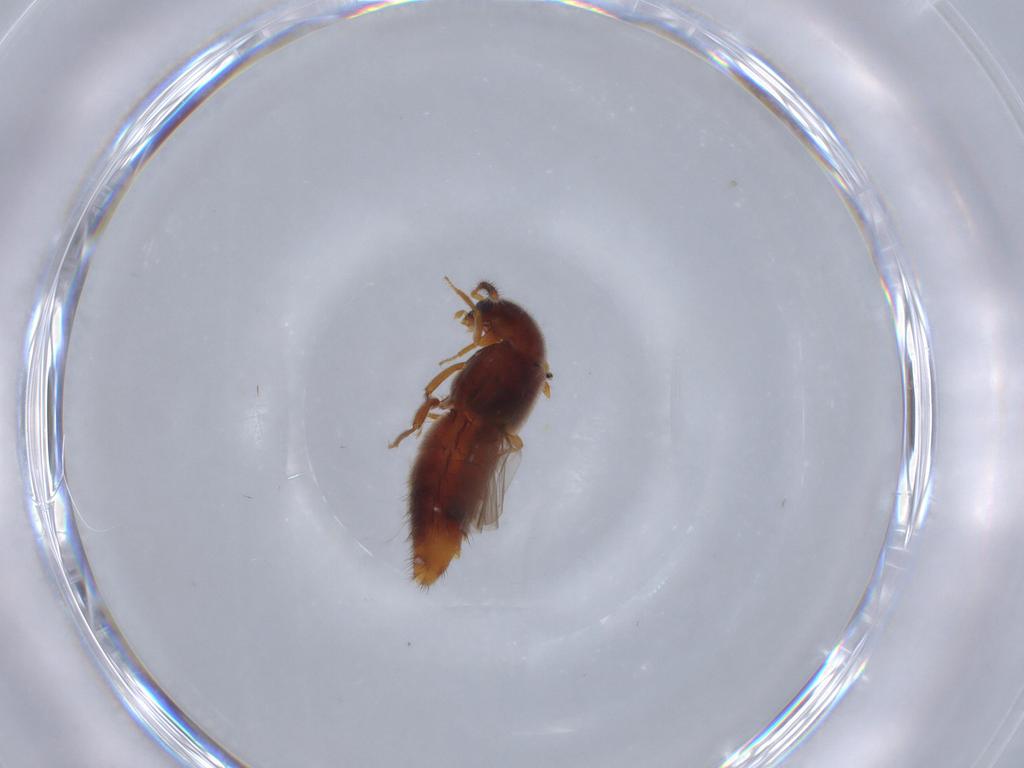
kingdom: Animalia
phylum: Arthropoda
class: Insecta
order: Coleoptera
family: Staphylinidae
